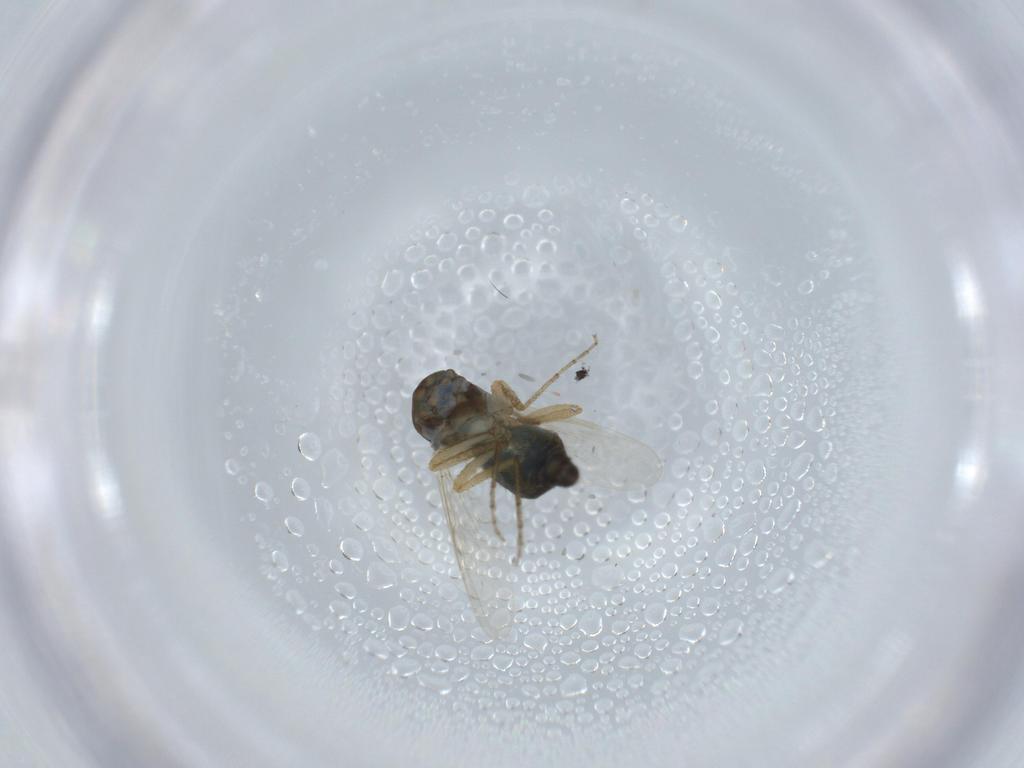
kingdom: Animalia
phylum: Arthropoda
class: Insecta
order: Diptera
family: Ceratopogonidae
